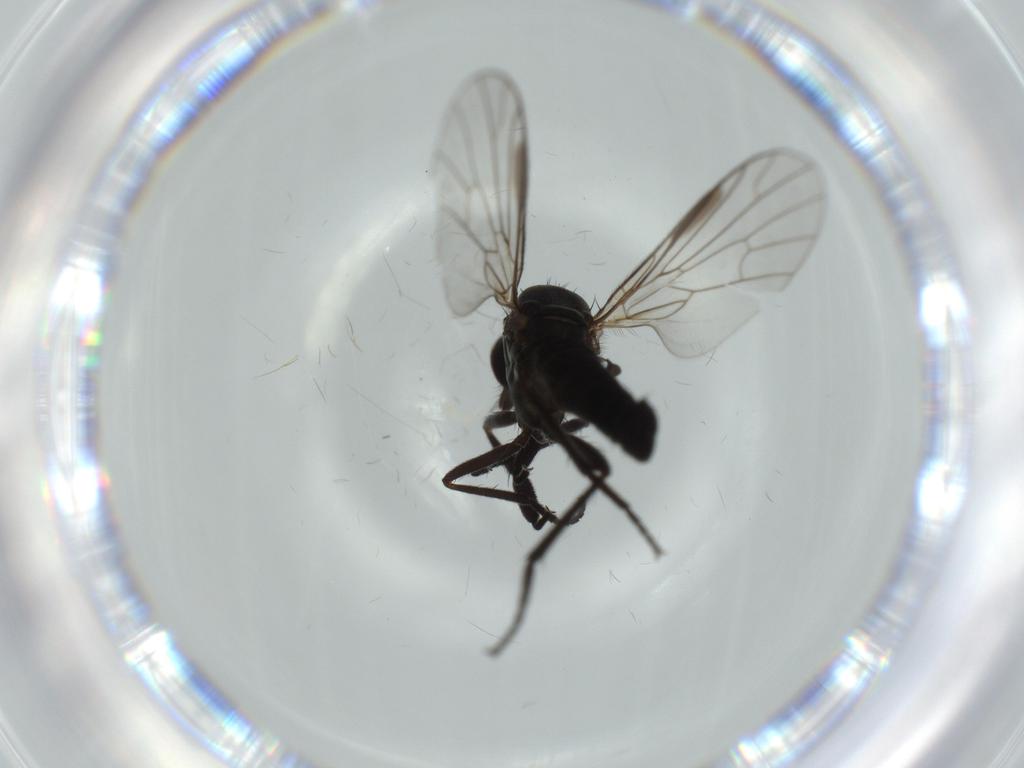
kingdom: Animalia
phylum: Arthropoda
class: Insecta
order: Diptera
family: Empididae
